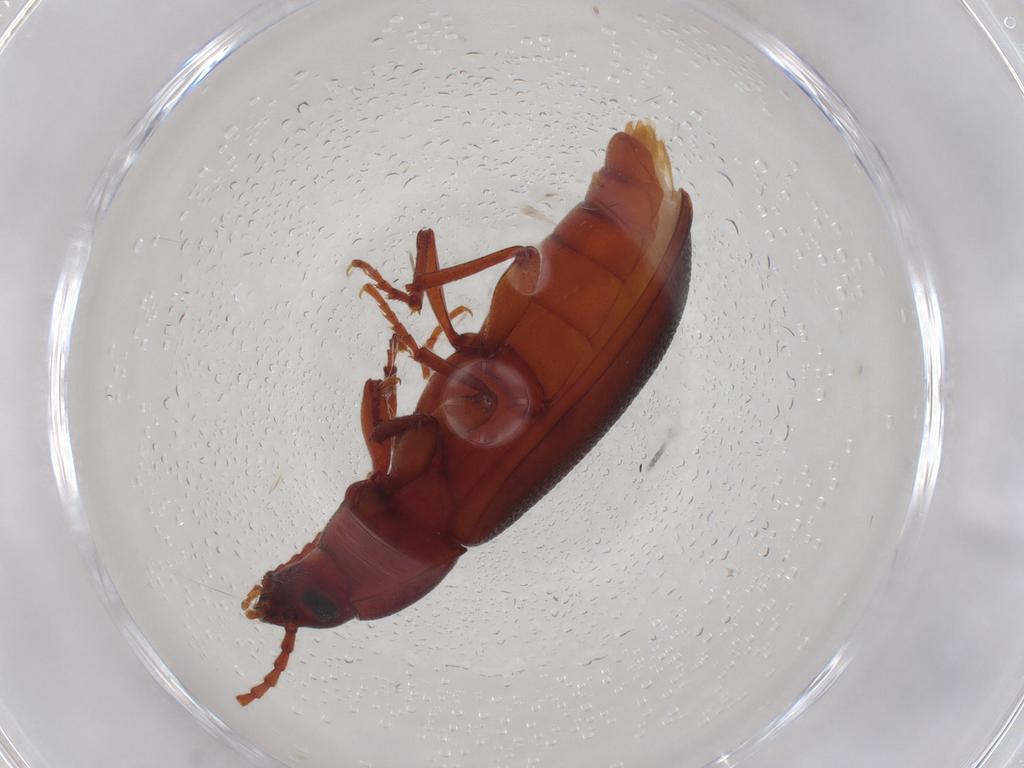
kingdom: Animalia
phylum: Arthropoda
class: Insecta
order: Coleoptera
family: Tenebrionidae
